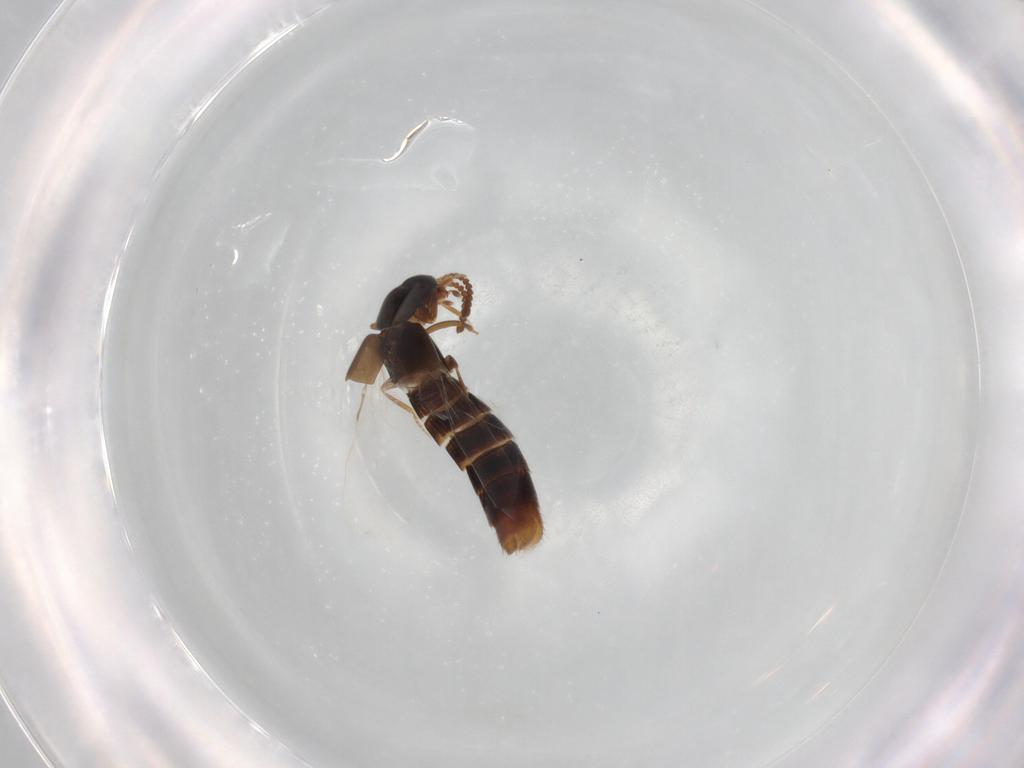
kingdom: Animalia
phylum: Arthropoda
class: Insecta
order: Coleoptera
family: Staphylinidae
